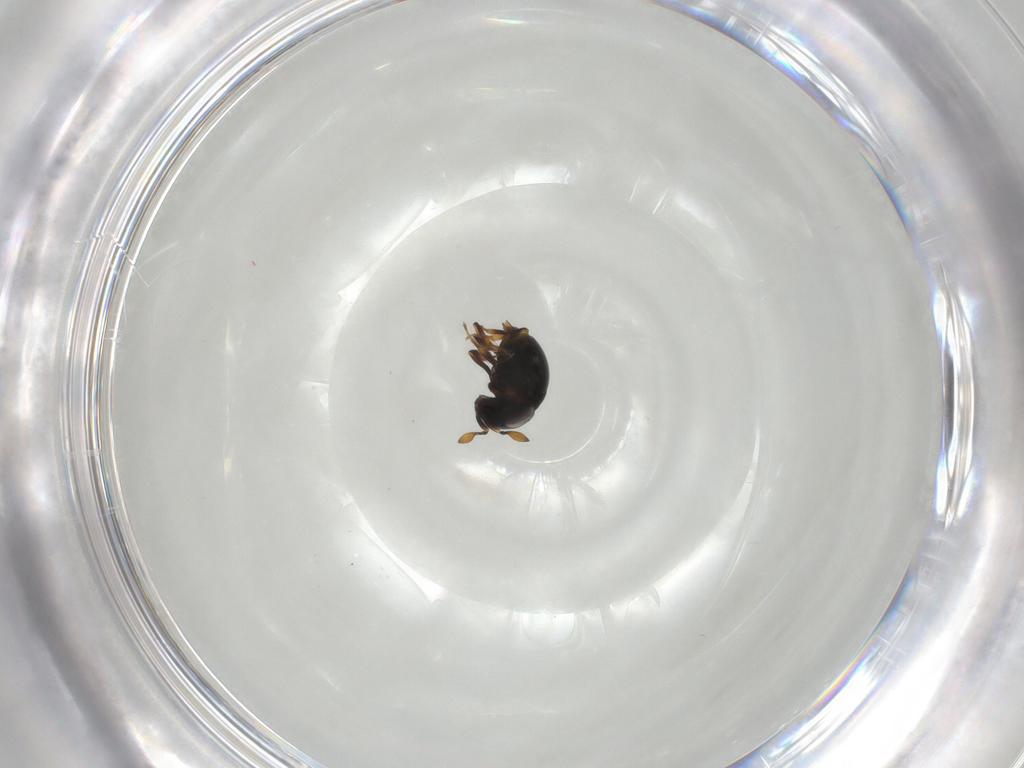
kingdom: Animalia
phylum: Arthropoda
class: Insecta
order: Hymenoptera
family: Scelionidae
